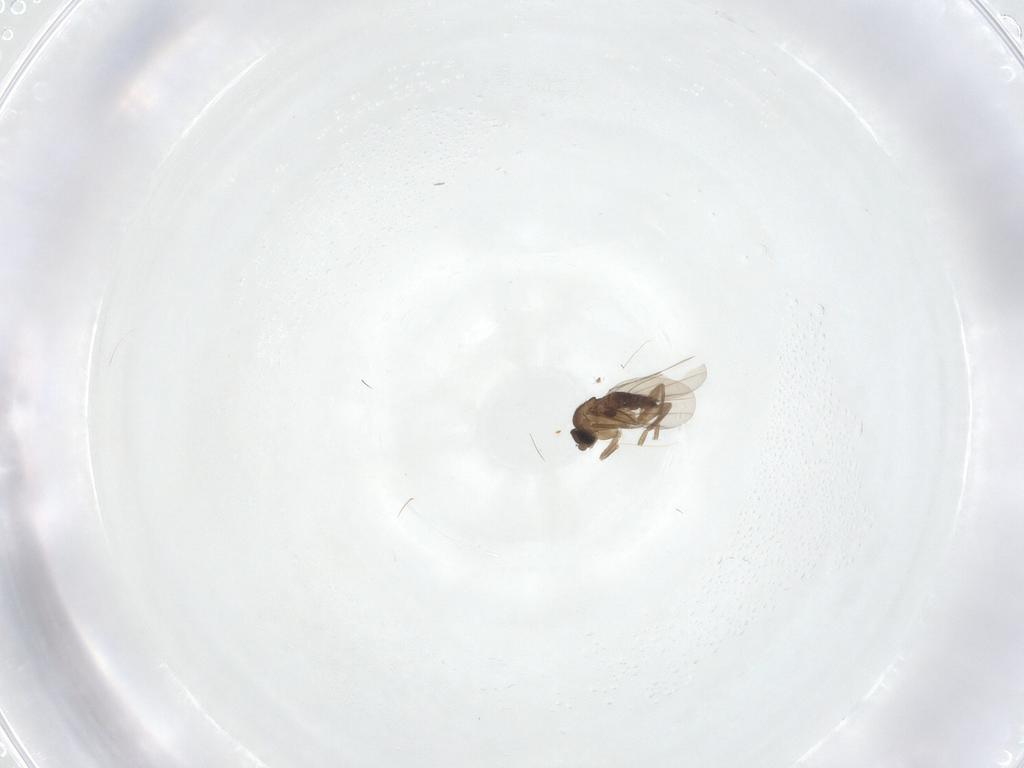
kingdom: Animalia
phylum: Arthropoda
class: Insecta
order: Diptera
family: Phoridae
